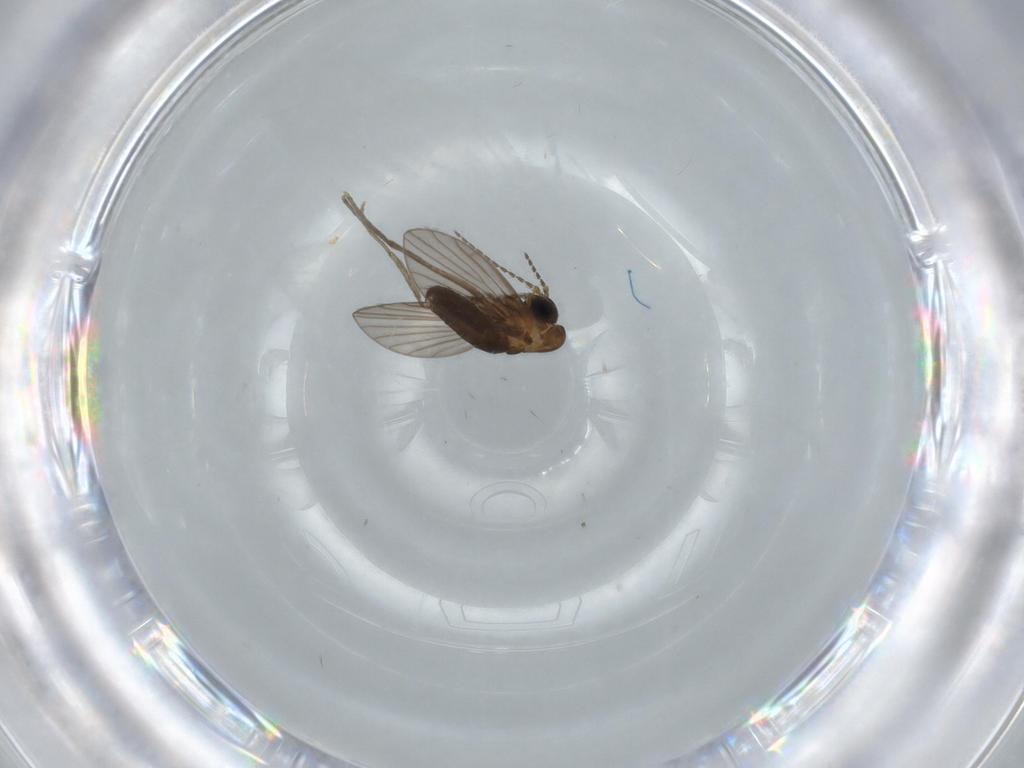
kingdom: Animalia
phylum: Arthropoda
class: Insecta
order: Diptera
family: Psychodidae
